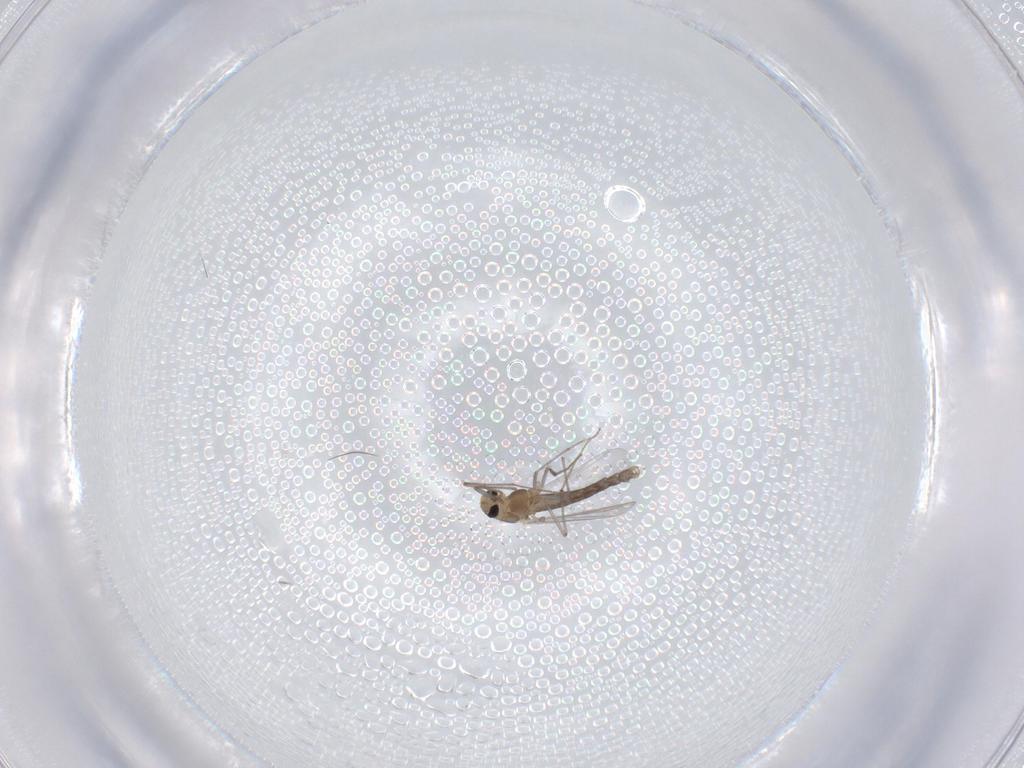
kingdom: Animalia
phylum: Arthropoda
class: Insecta
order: Diptera
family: Chironomidae
